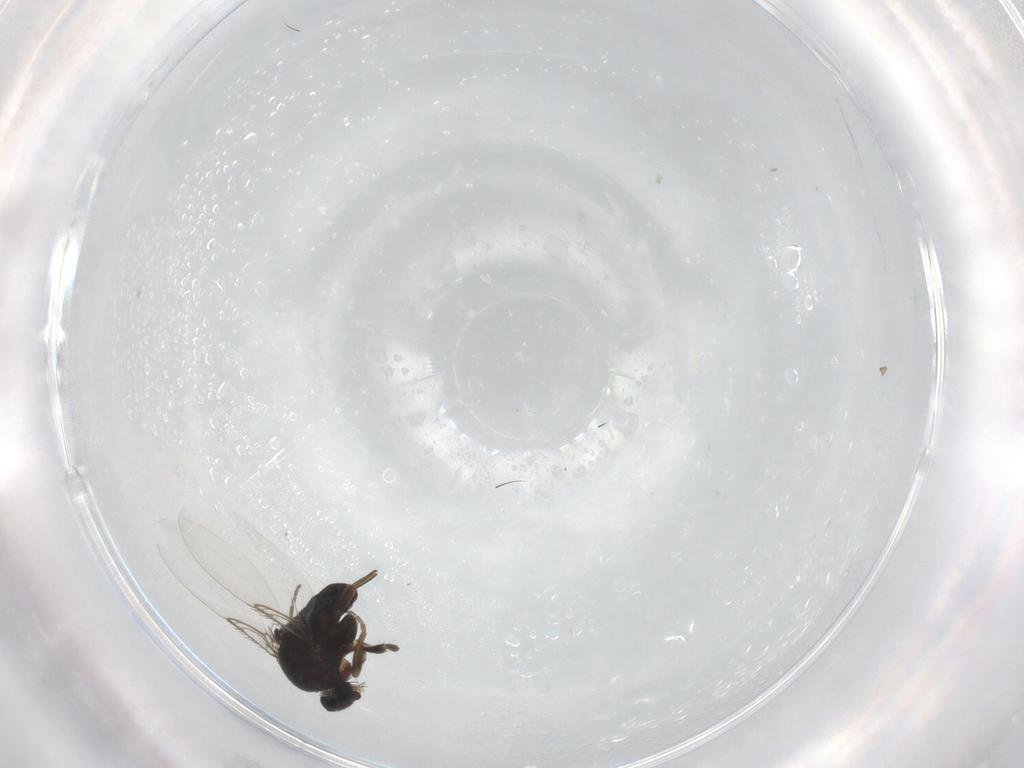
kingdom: Animalia
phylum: Arthropoda
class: Insecta
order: Diptera
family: Phoridae
